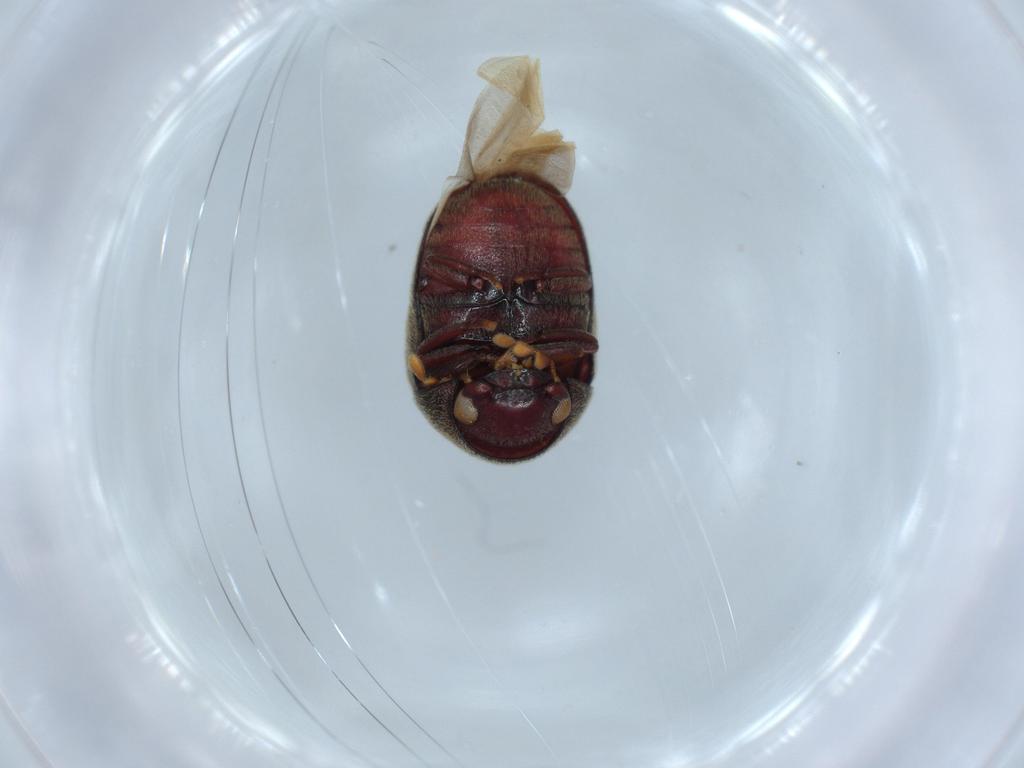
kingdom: Animalia
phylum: Arthropoda
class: Insecta
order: Coleoptera
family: Ptinidae
